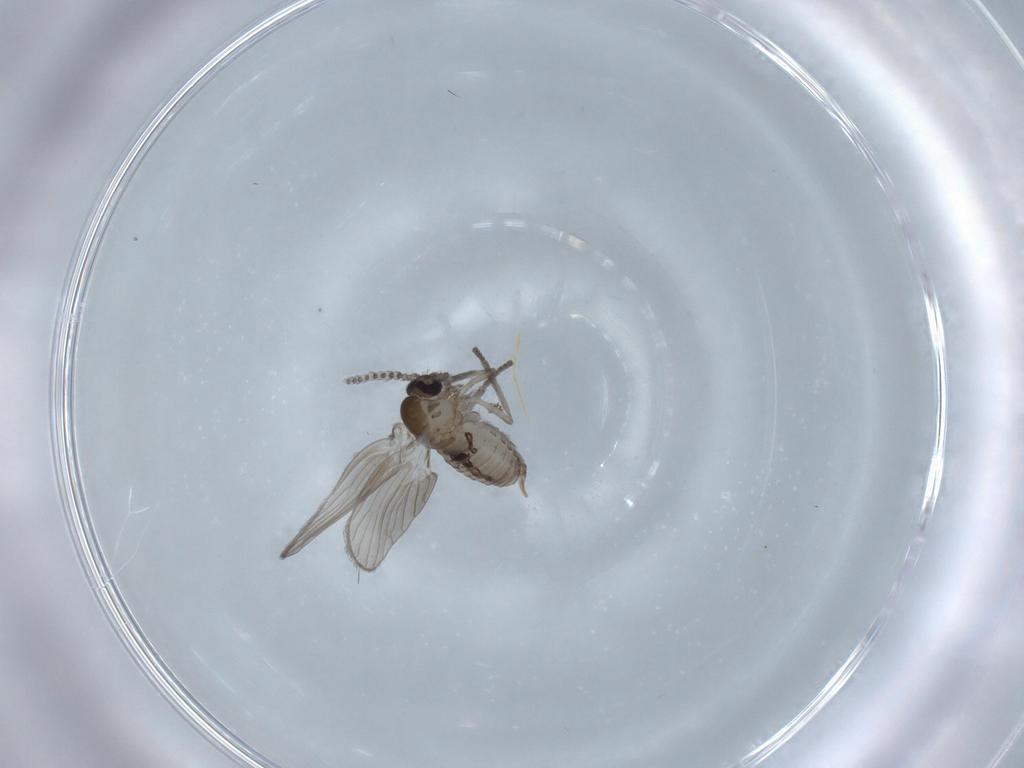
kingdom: Animalia
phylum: Arthropoda
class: Insecta
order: Diptera
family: Psychodidae
